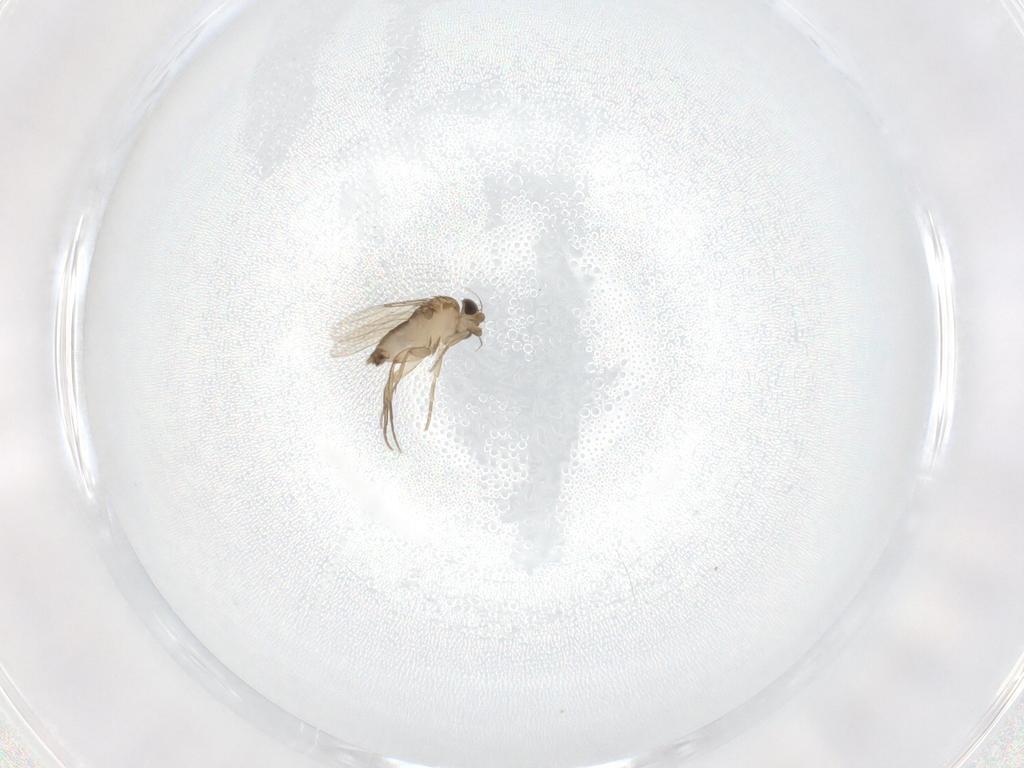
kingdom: Animalia
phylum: Arthropoda
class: Insecta
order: Diptera
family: Phoridae
